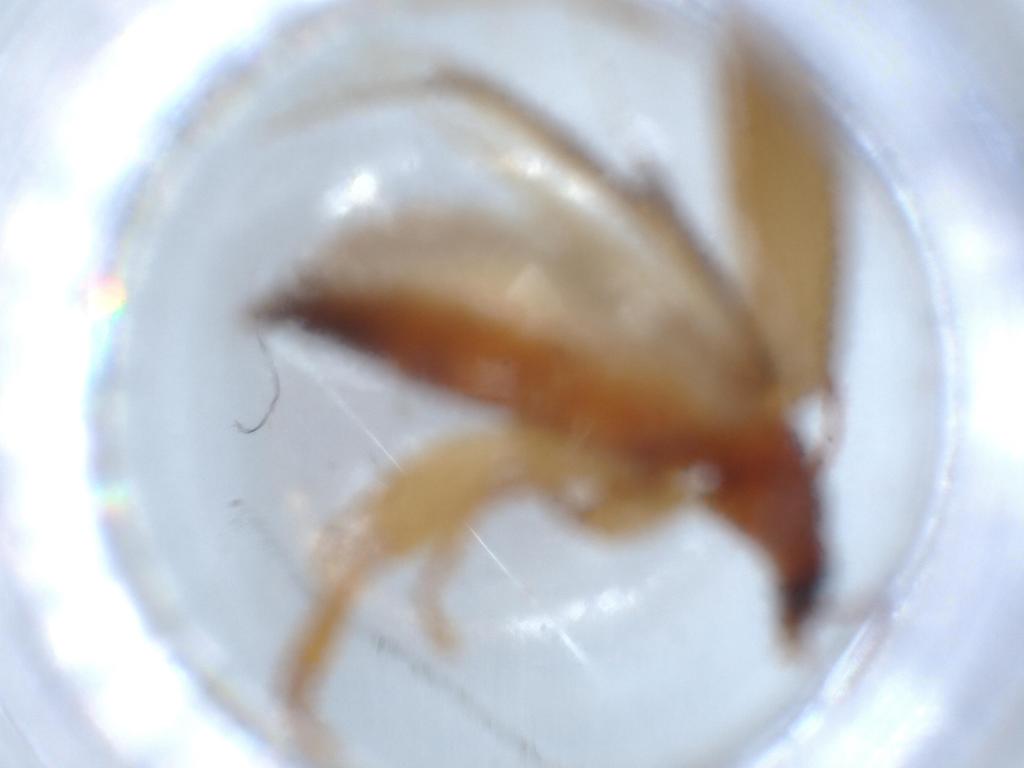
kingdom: Animalia
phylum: Arthropoda
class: Insecta
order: Coleoptera
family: Tenebrionidae
